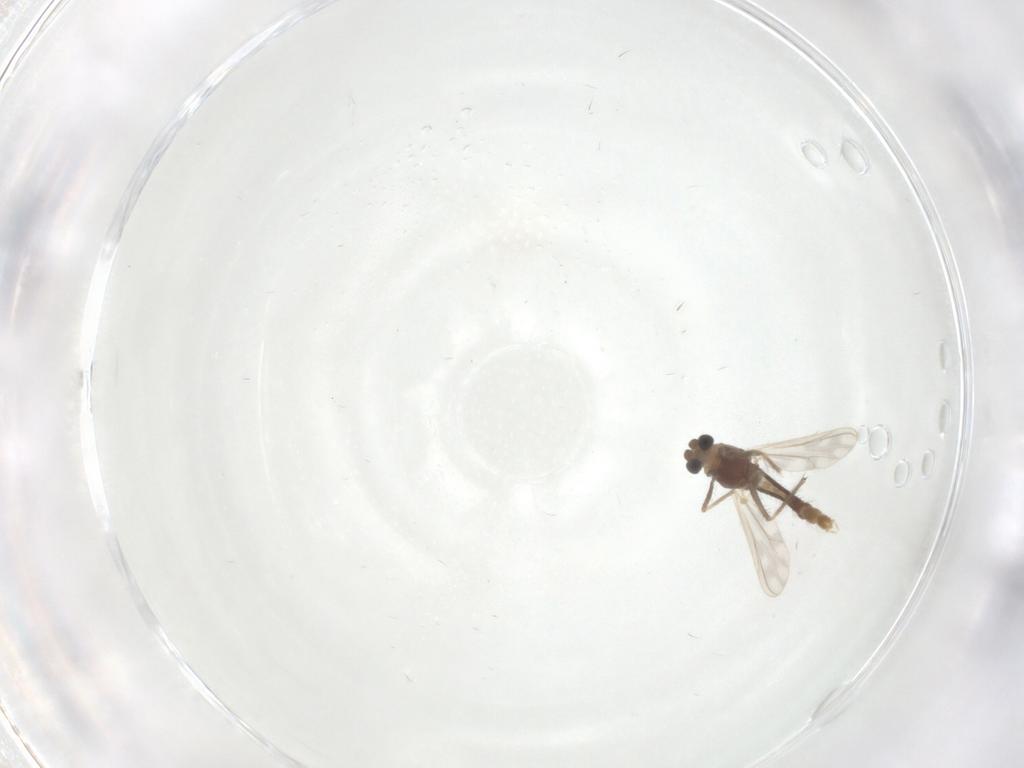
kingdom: Animalia
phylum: Arthropoda
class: Insecta
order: Diptera
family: Chironomidae
